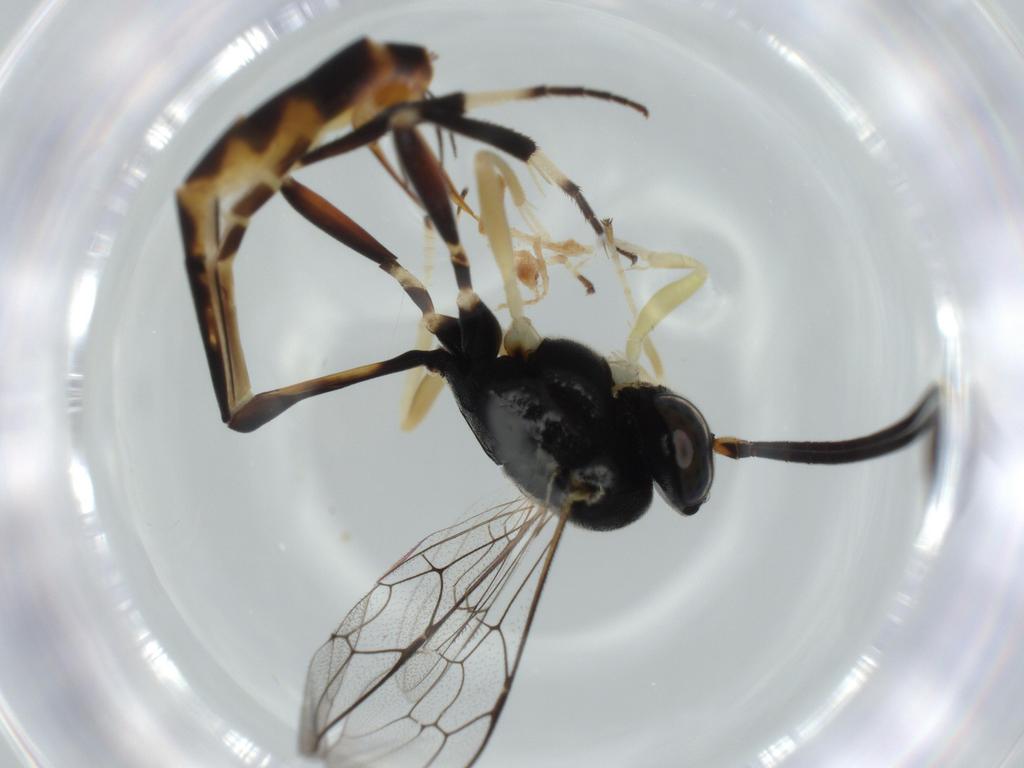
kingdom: Animalia
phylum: Arthropoda
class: Insecta
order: Hymenoptera
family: Ichneumonidae
